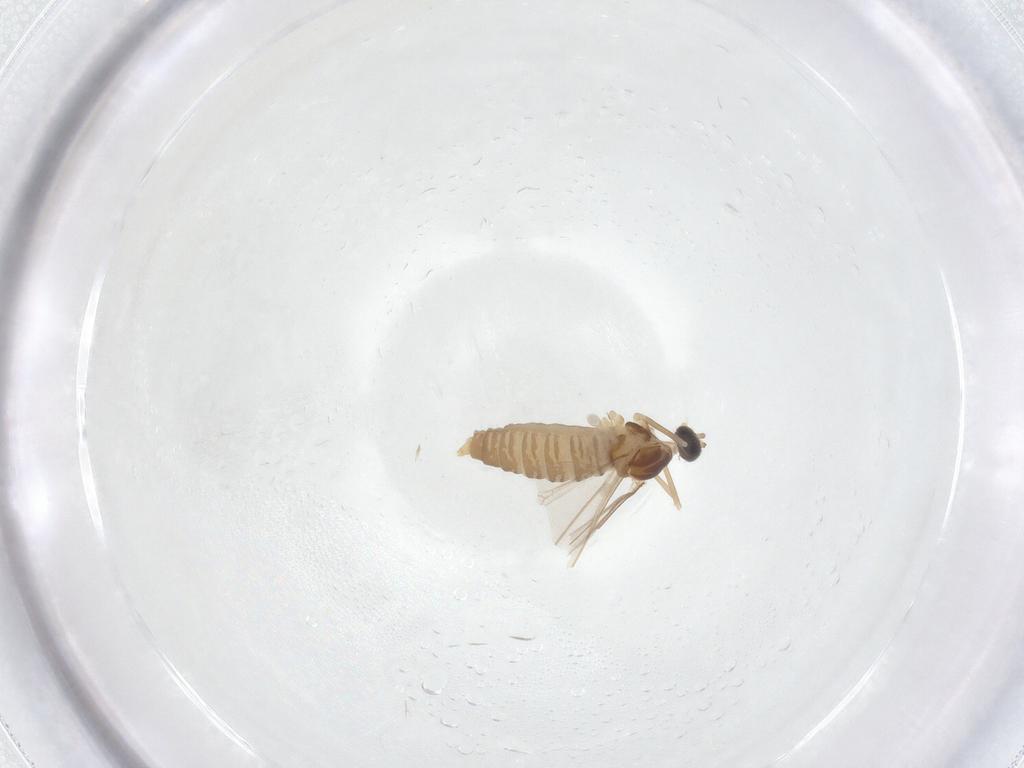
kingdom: Animalia
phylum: Arthropoda
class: Insecta
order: Diptera
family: Cecidomyiidae
